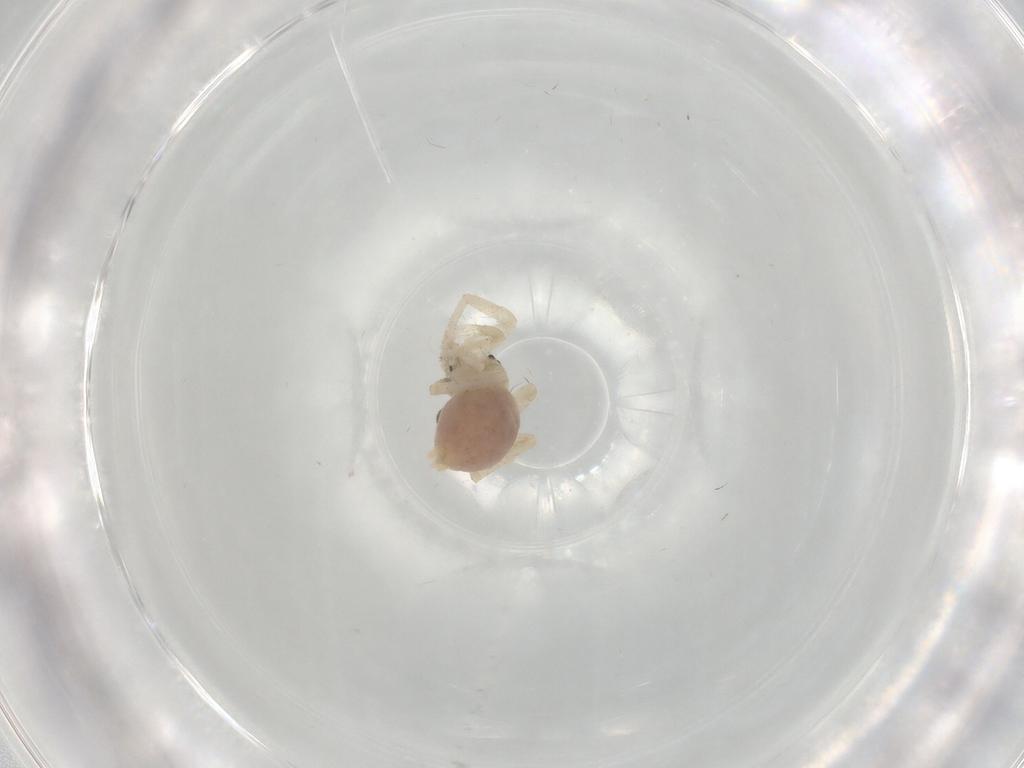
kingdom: Animalia
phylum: Arthropoda
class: Arachnida
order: Araneae
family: Anyphaenidae
